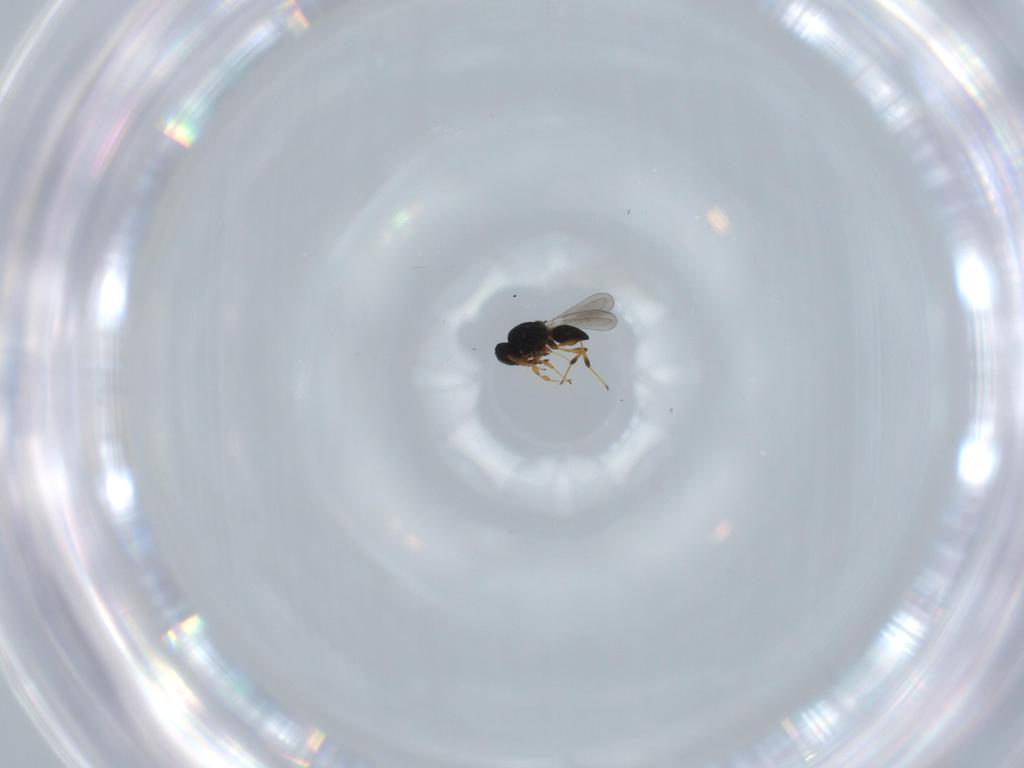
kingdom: Animalia
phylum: Arthropoda
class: Insecta
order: Hymenoptera
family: Platygastridae
